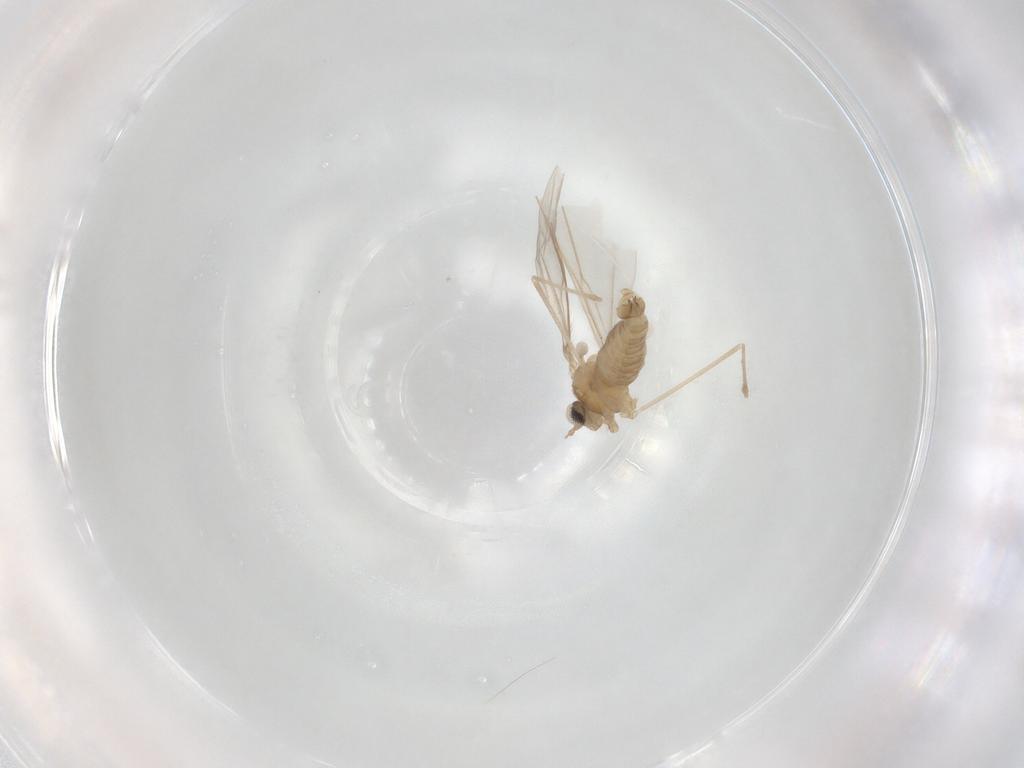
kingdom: Animalia
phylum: Arthropoda
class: Insecta
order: Diptera
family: Cecidomyiidae
